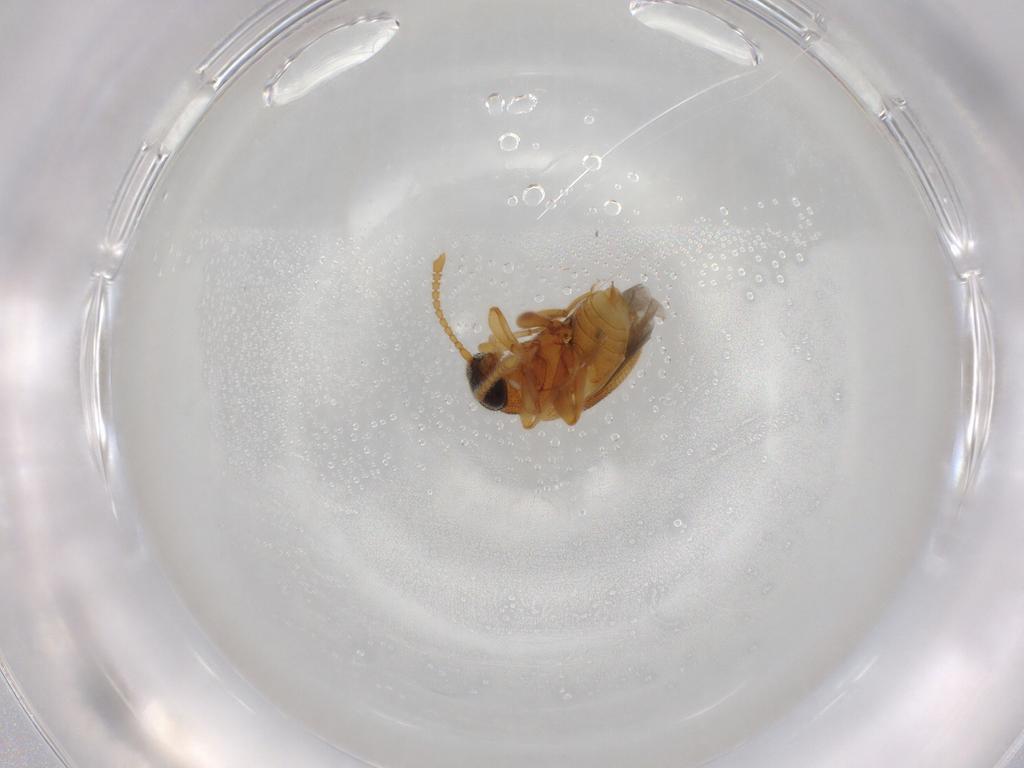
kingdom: Animalia
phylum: Arthropoda
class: Insecta
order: Coleoptera
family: Aderidae
